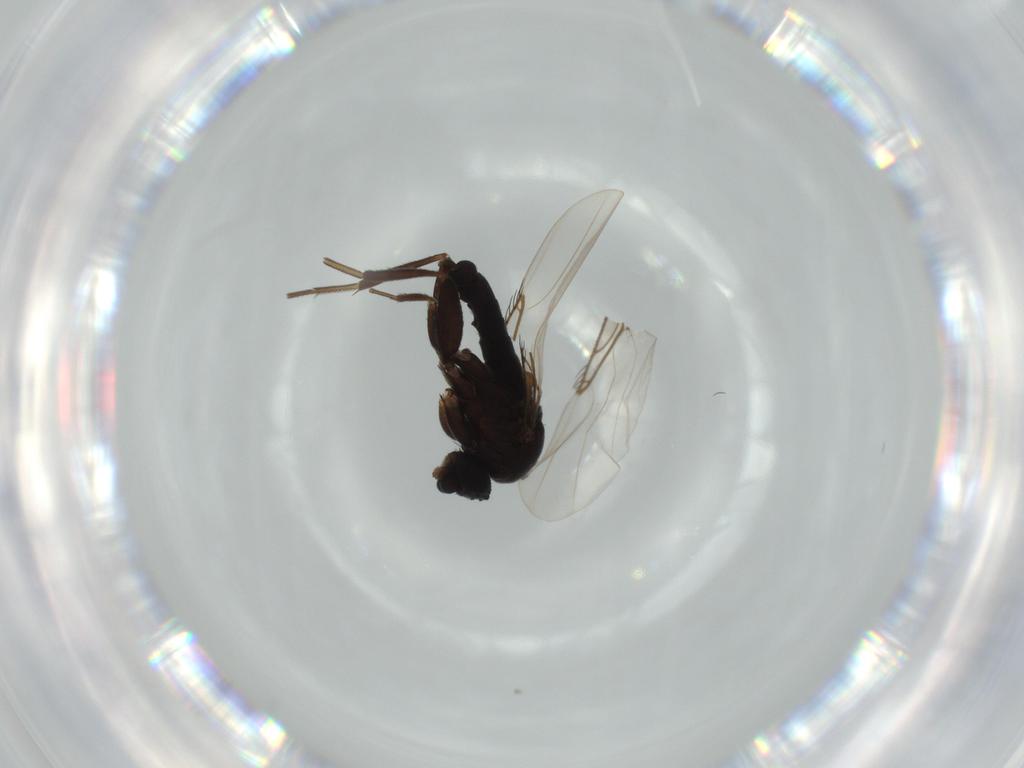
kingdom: Animalia
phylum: Arthropoda
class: Insecta
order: Diptera
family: Phoridae
